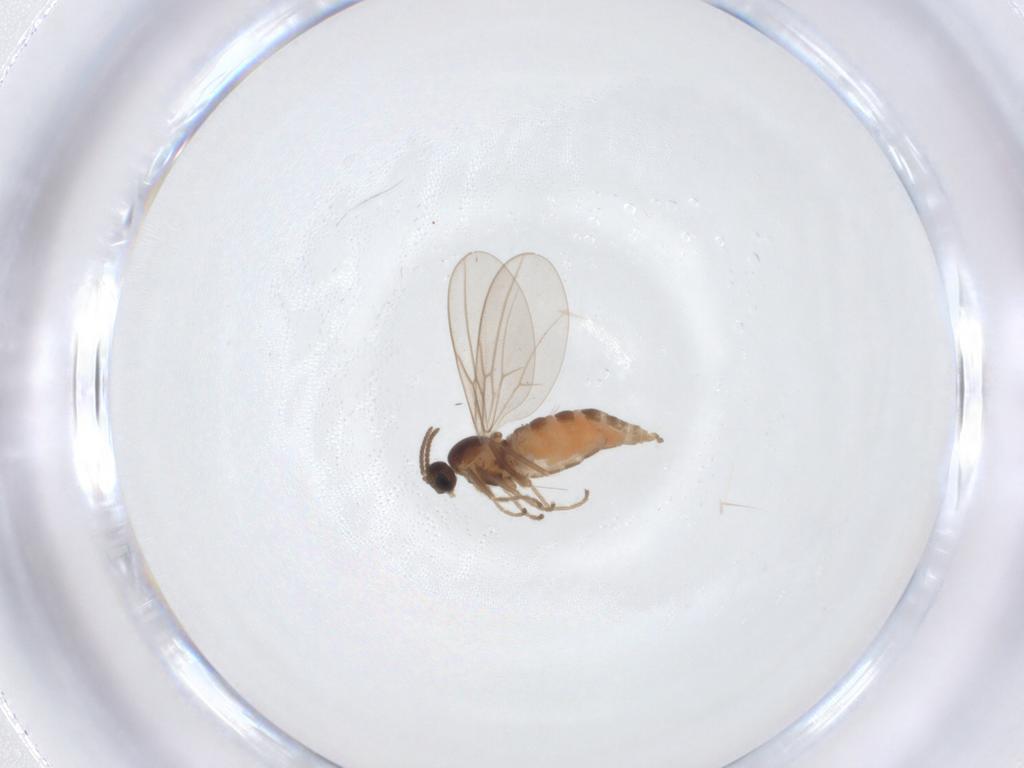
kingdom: Animalia
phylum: Arthropoda
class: Insecta
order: Diptera
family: Cecidomyiidae
